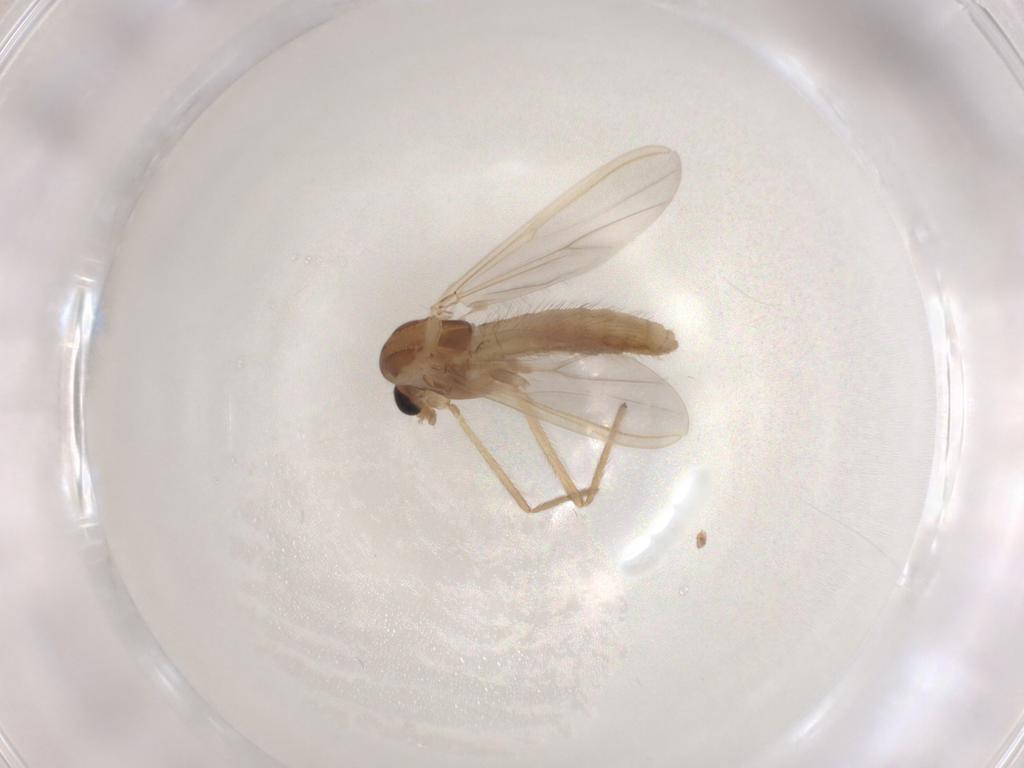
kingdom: Animalia
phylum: Arthropoda
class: Insecta
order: Diptera
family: Chironomidae
